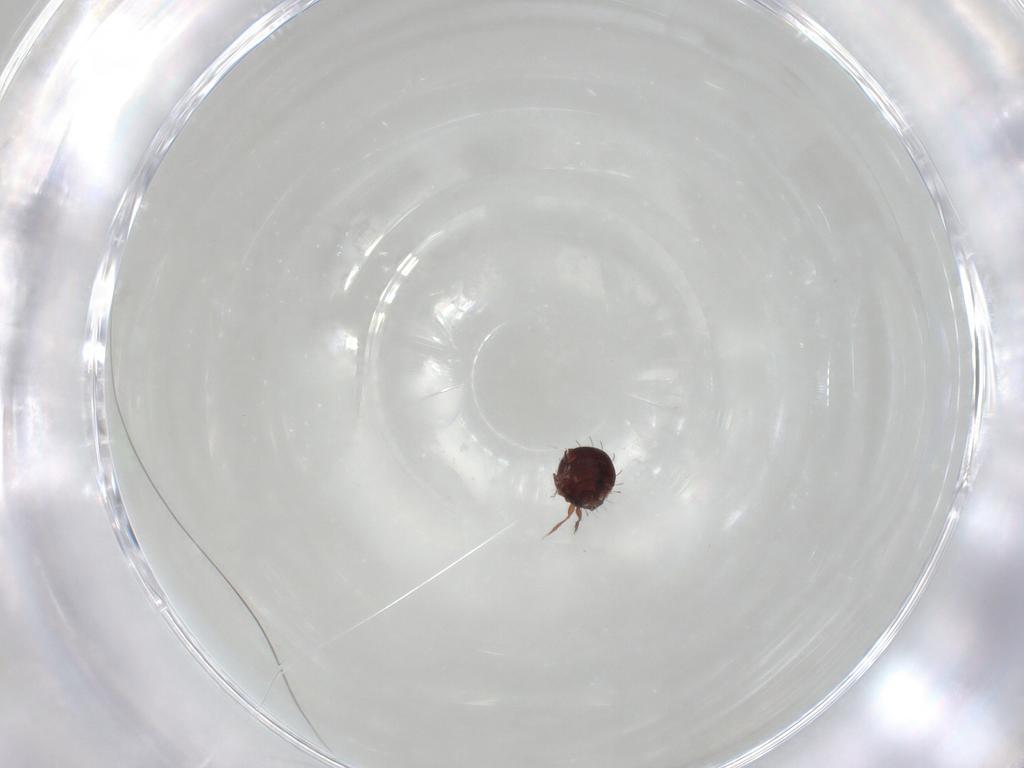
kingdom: Animalia
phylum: Arthropoda
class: Arachnida
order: Sarcoptiformes
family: Caloppiidae
